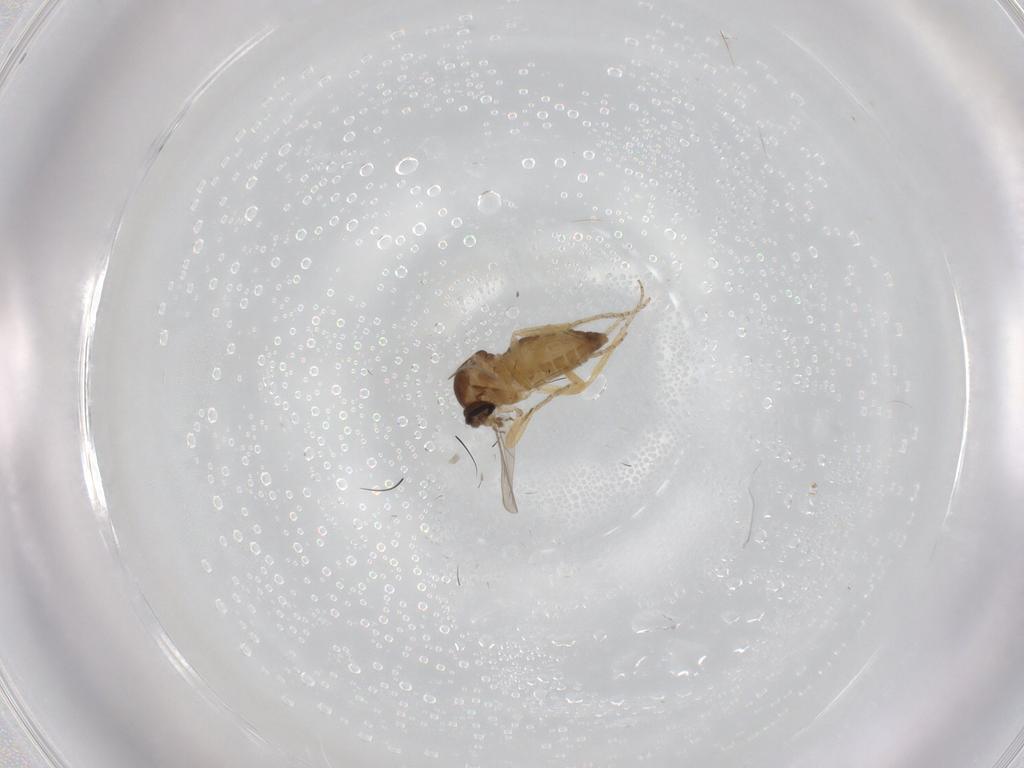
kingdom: Animalia
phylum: Arthropoda
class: Insecta
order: Diptera
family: Ceratopogonidae
